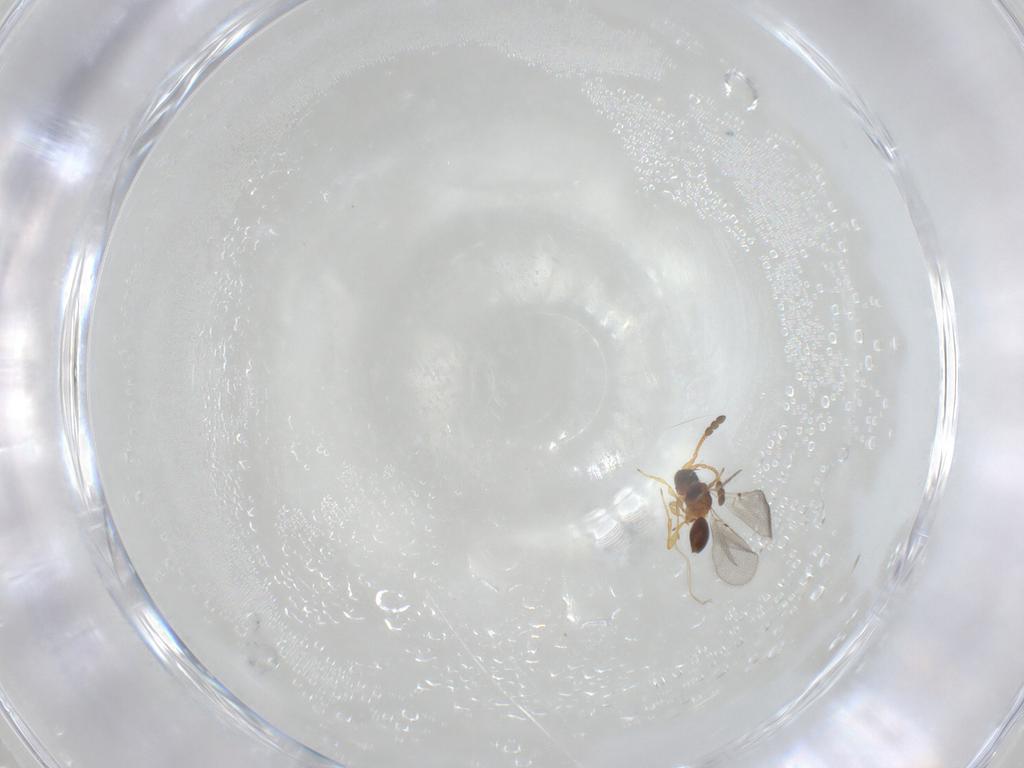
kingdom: Animalia
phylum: Arthropoda
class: Insecta
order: Hymenoptera
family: Diapriidae
